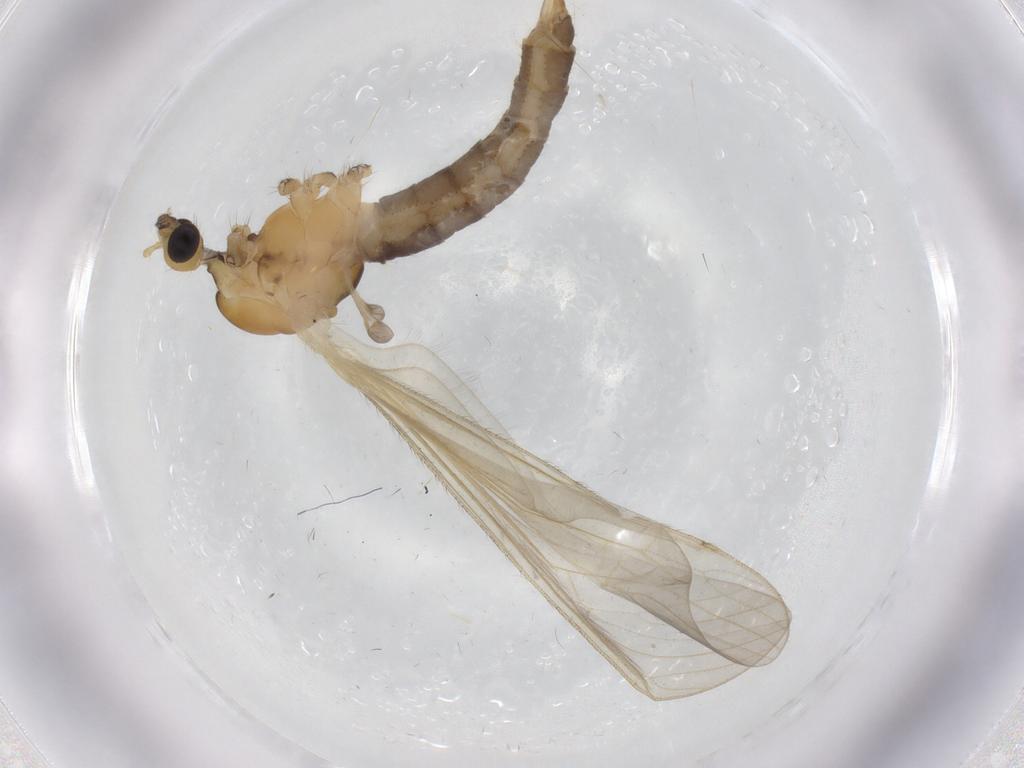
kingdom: Animalia
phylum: Arthropoda
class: Insecta
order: Diptera
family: Limoniidae
